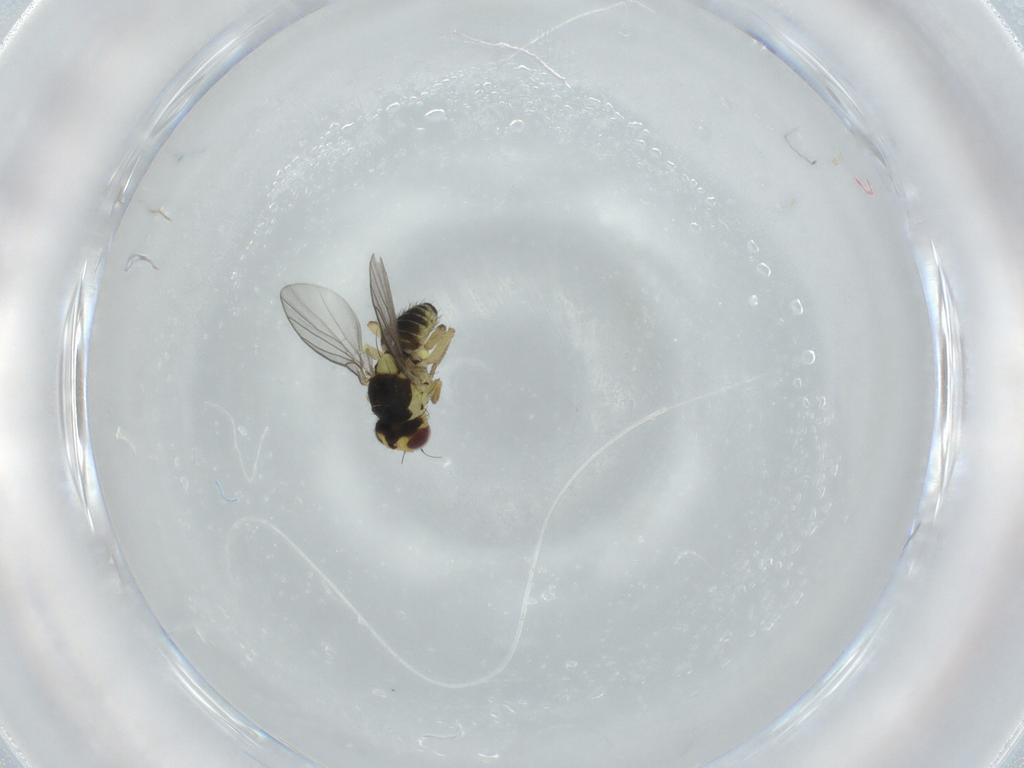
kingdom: Animalia
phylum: Arthropoda
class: Insecta
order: Diptera
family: Agromyzidae
